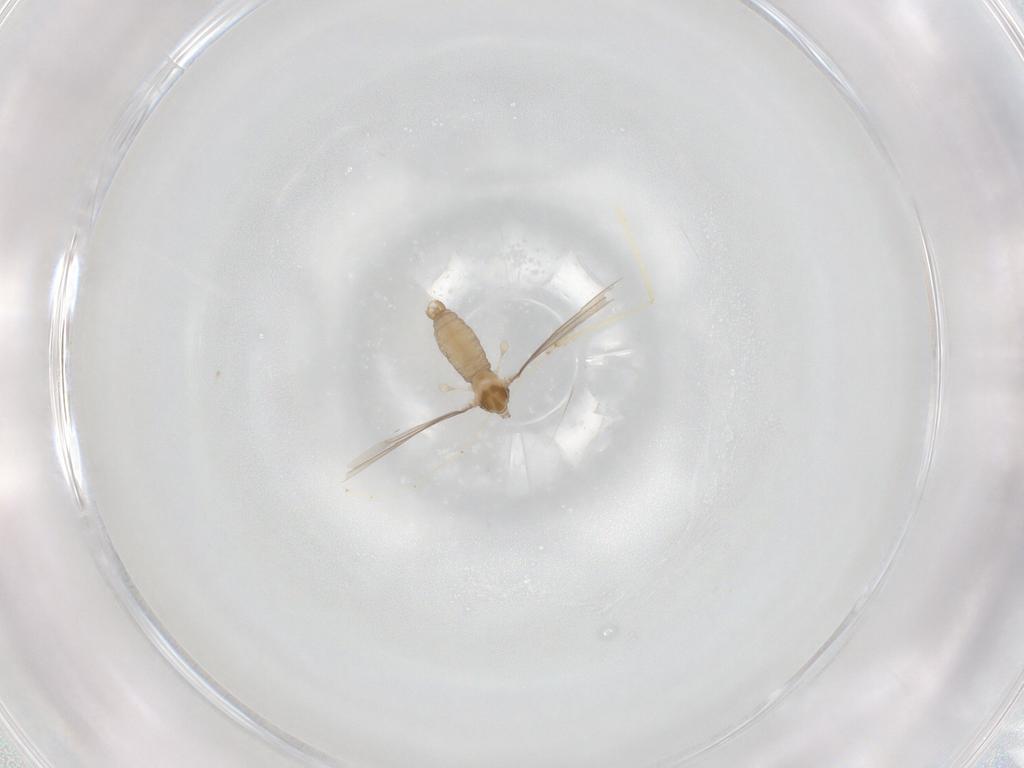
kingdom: Animalia
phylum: Arthropoda
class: Insecta
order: Diptera
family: Cecidomyiidae
